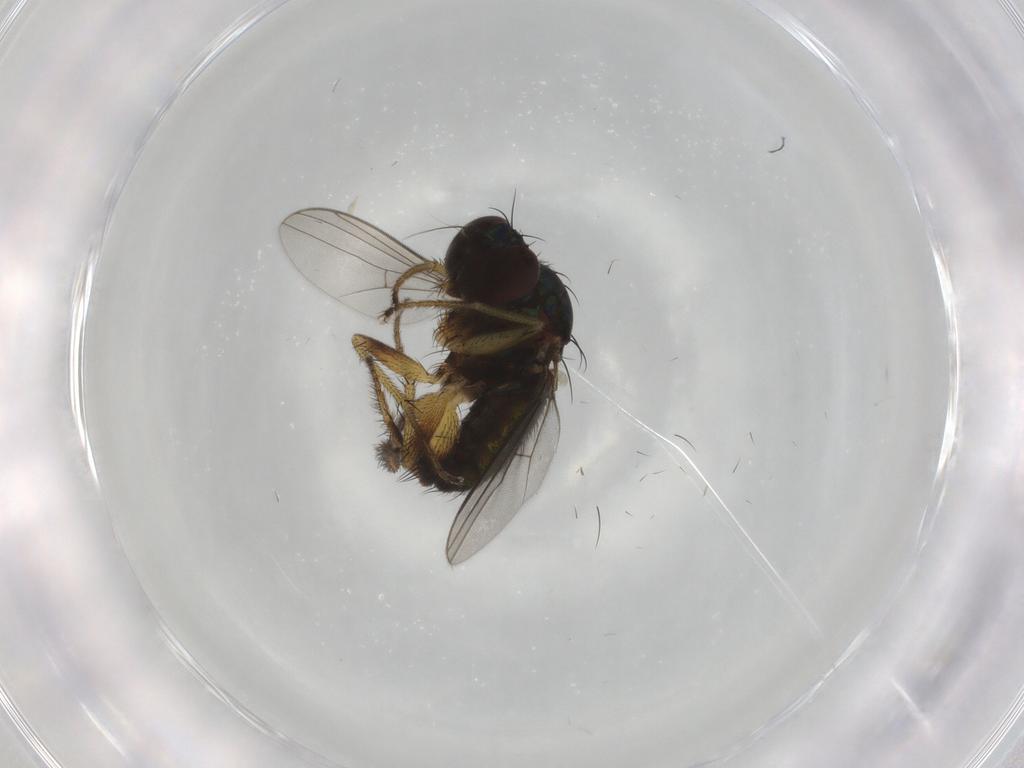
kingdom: Animalia
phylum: Arthropoda
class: Insecta
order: Diptera
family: Dolichopodidae
